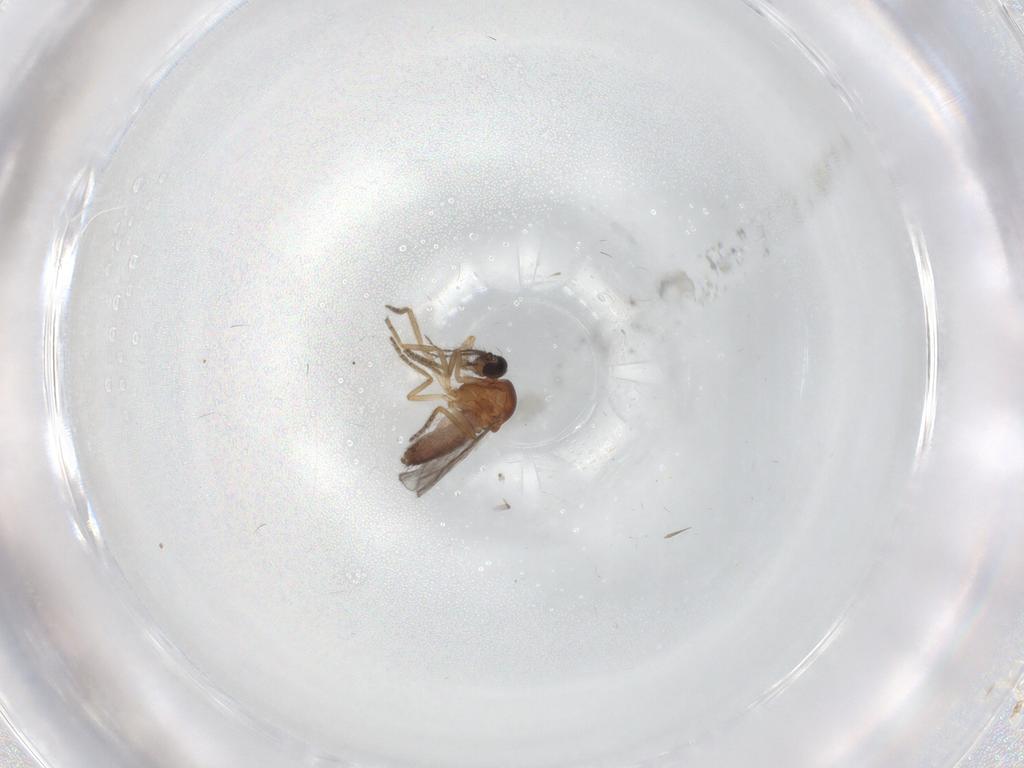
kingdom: Animalia
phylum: Arthropoda
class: Insecta
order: Diptera
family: Ceratopogonidae
